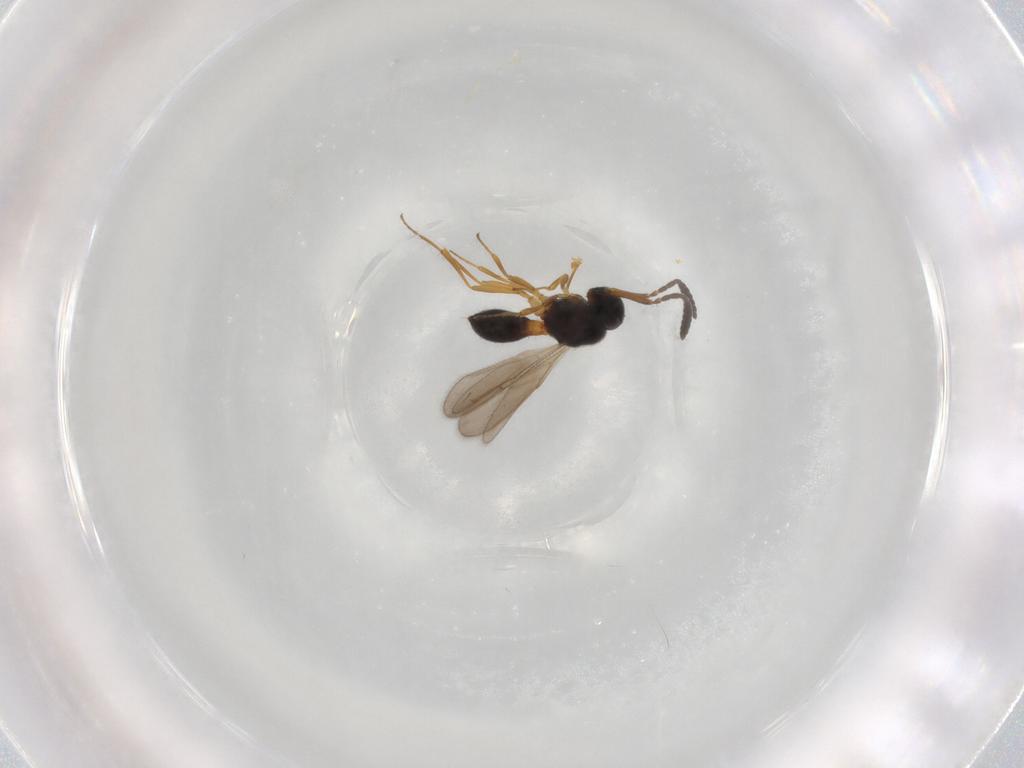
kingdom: Animalia
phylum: Arthropoda
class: Insecta
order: Hymenoptera
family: Scelionidae
